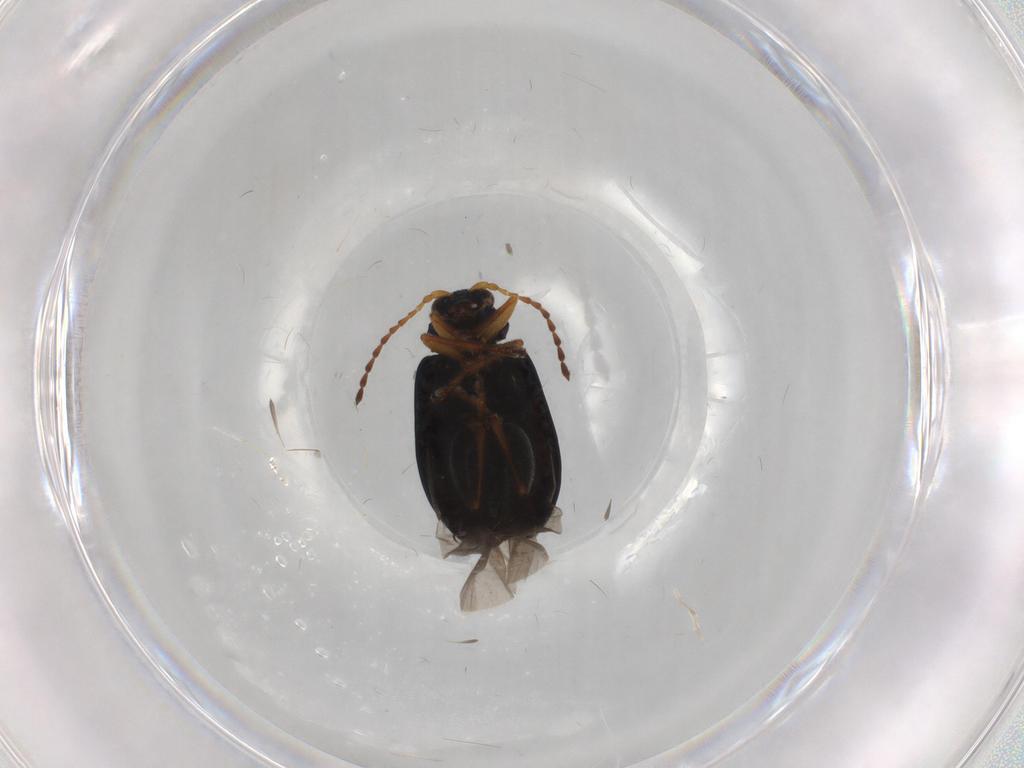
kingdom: Animalia
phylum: Arthropoda
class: Insecta
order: Coleoptera
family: Chrysomelidae
